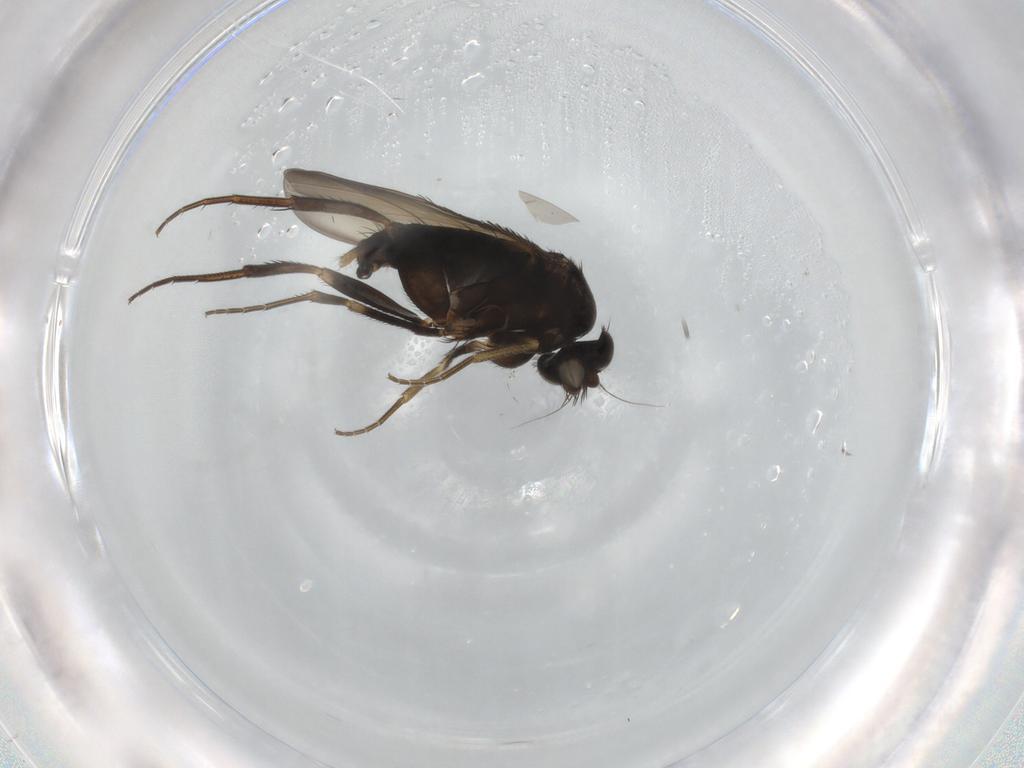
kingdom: Animalia
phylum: Arthropoda
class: Insecta
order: Diptera
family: Phoridae
